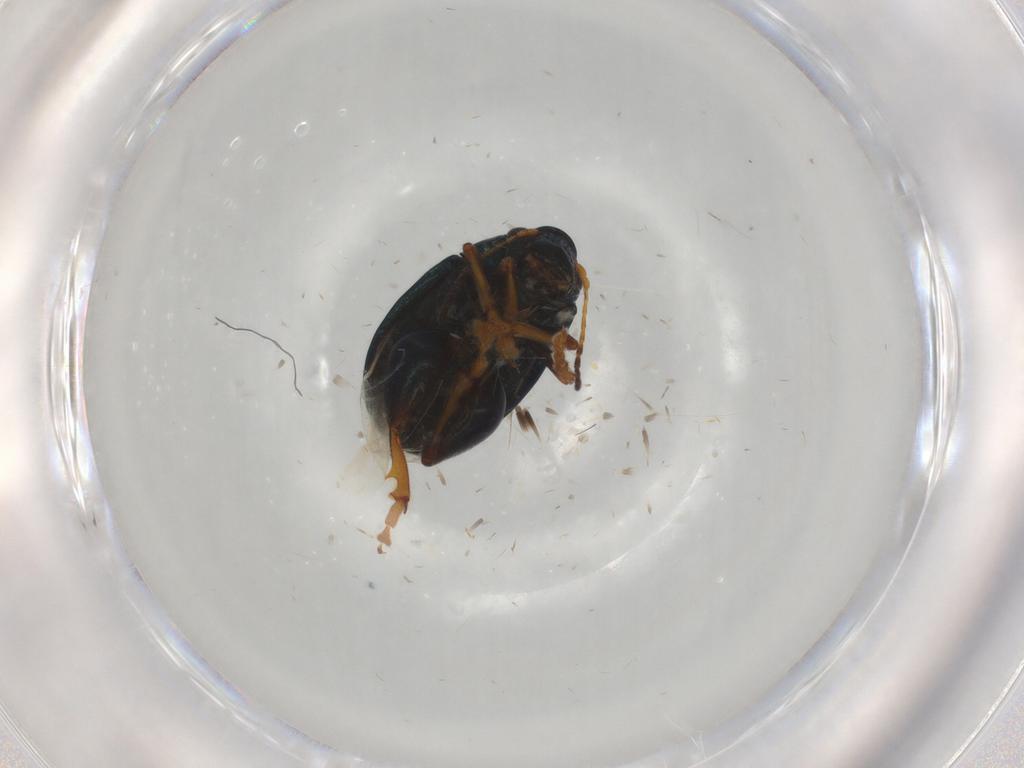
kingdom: Animalia
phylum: Arthropoda
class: Insecta
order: Coleoptera
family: Chrysomelidae
